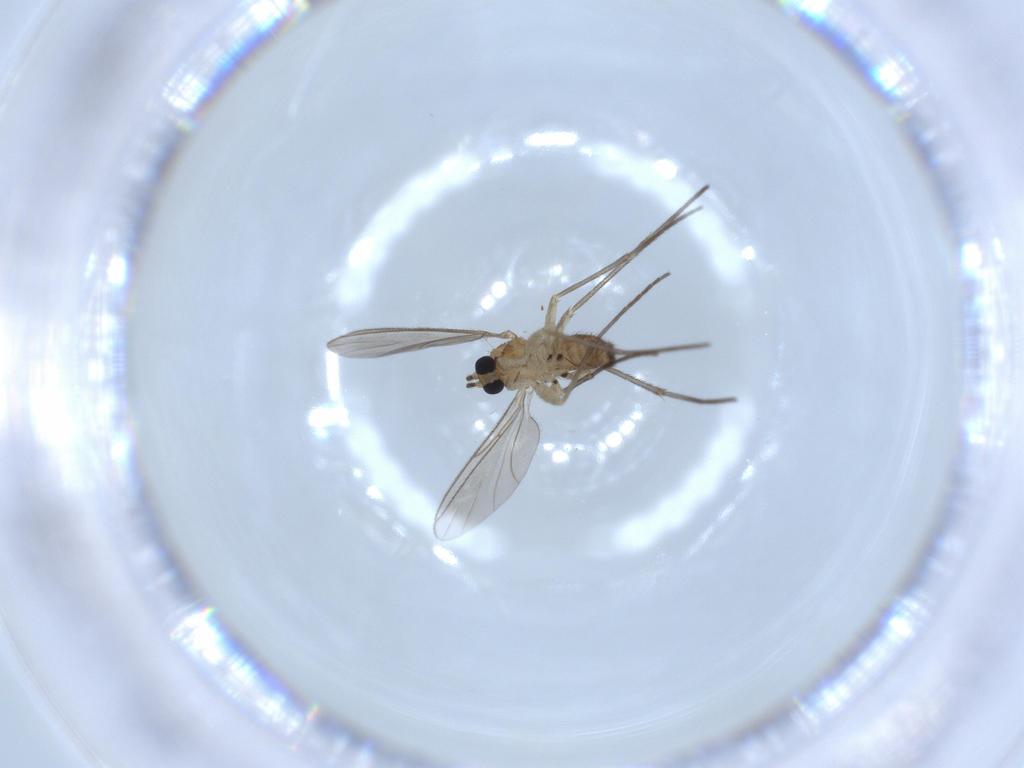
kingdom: Animalia
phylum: Arthropoda
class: Insecta
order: Diptera
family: Sciaridae
